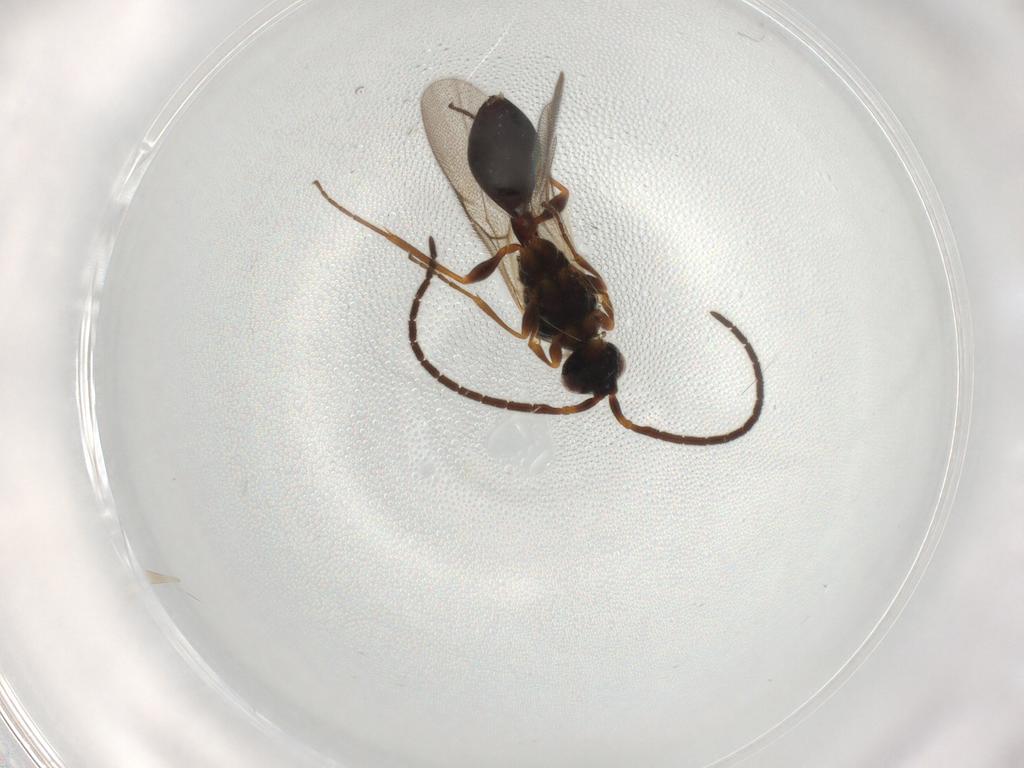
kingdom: Animalia
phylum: Arthropoda
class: Insecta
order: Hymenoptera
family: Diapriidae
